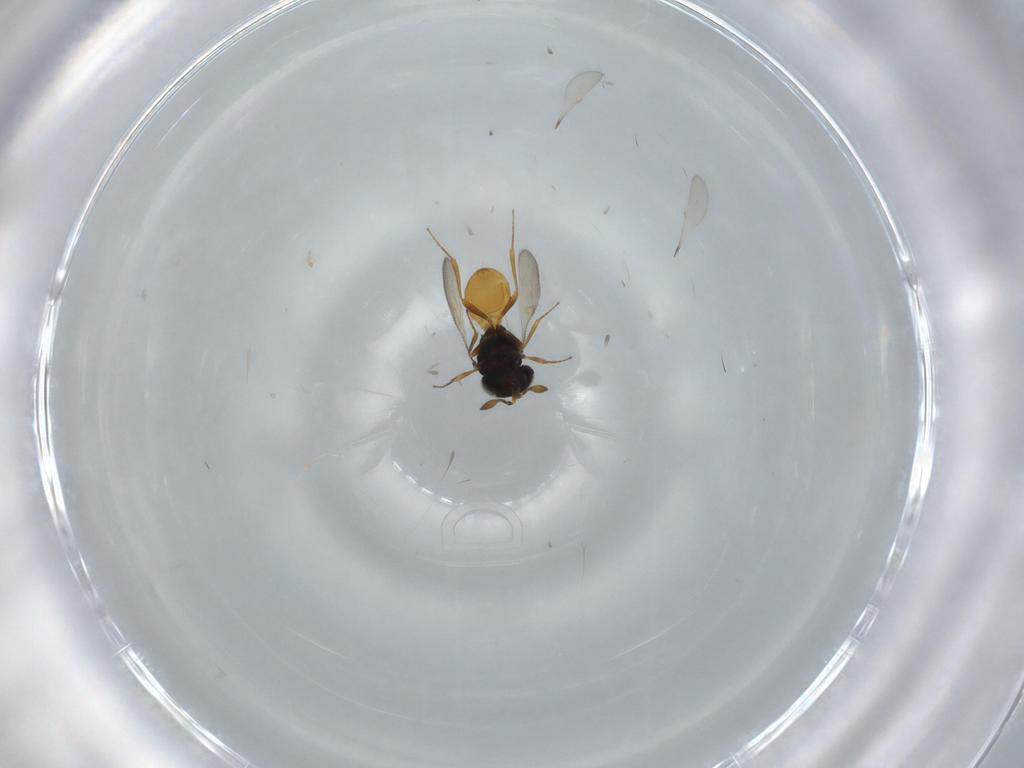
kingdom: Animalia
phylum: Arthropoda
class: Insecta
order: Hymenoptera
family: Scelionidae
